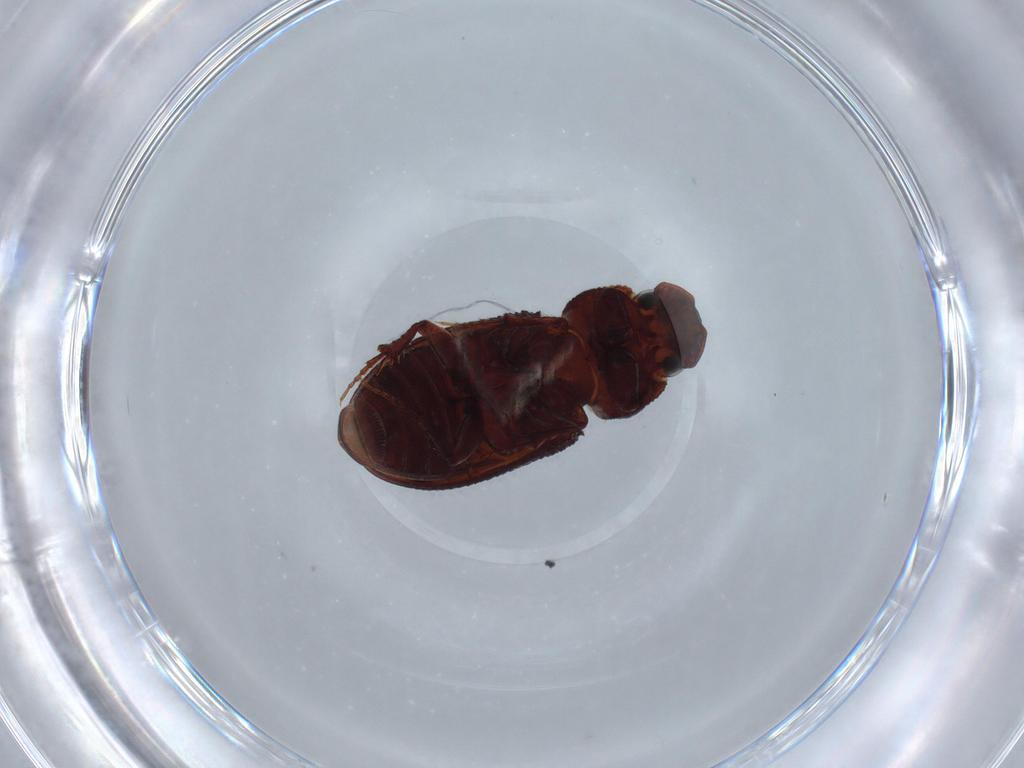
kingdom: Animalia
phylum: Arthropoda
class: Insecta
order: Coleoptera
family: Scarabaeidae
